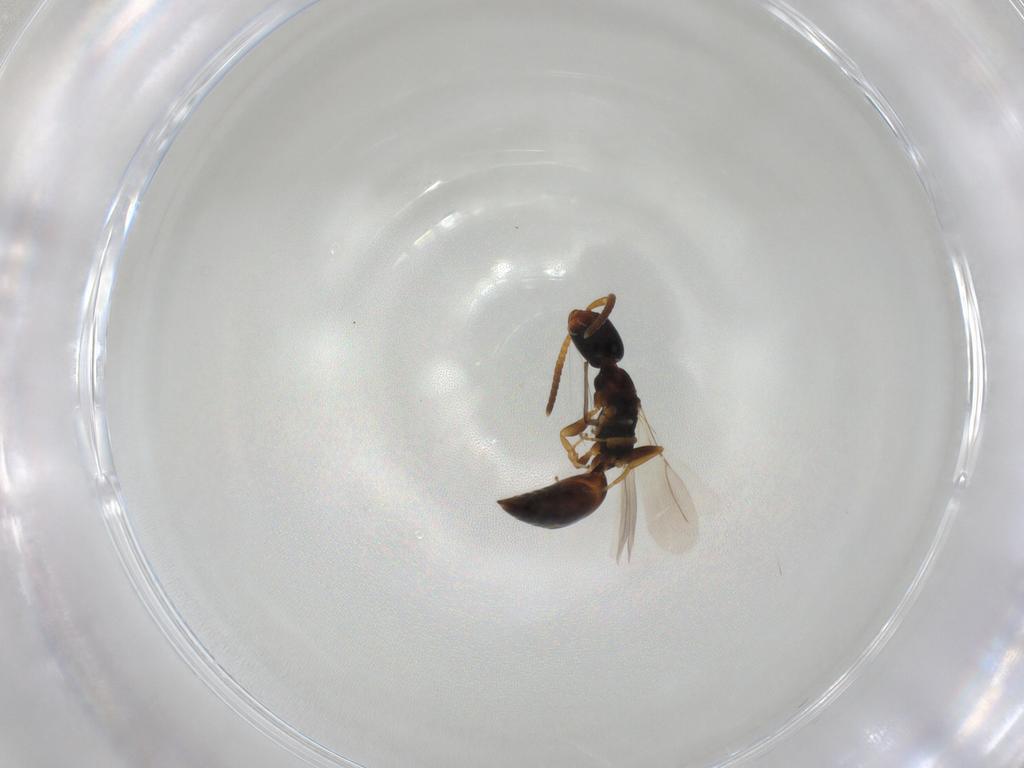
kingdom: Animalia
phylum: Arthropoda
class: Insecta
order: Hymenoptera
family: Bethylidae
